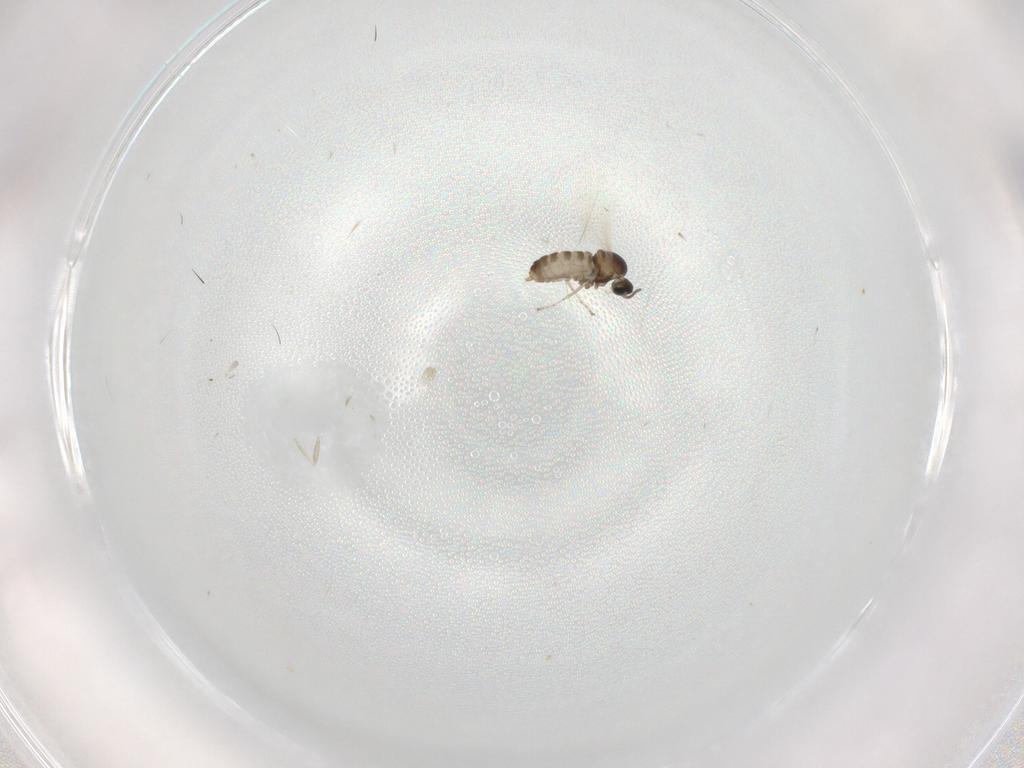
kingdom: Animalia
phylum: Arthropoda
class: Insecta
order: Diptera
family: Cecidomyiidae
